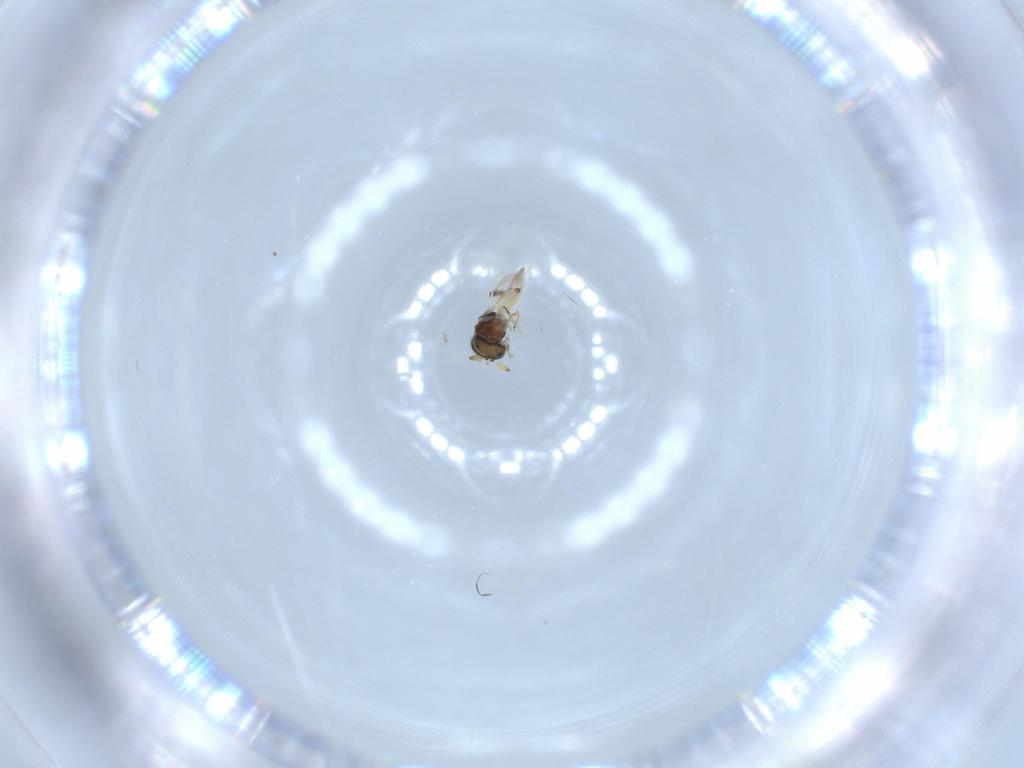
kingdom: Animalia
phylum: Arthropoda
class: Insecta
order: Hymenoptera
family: Scelionidae
